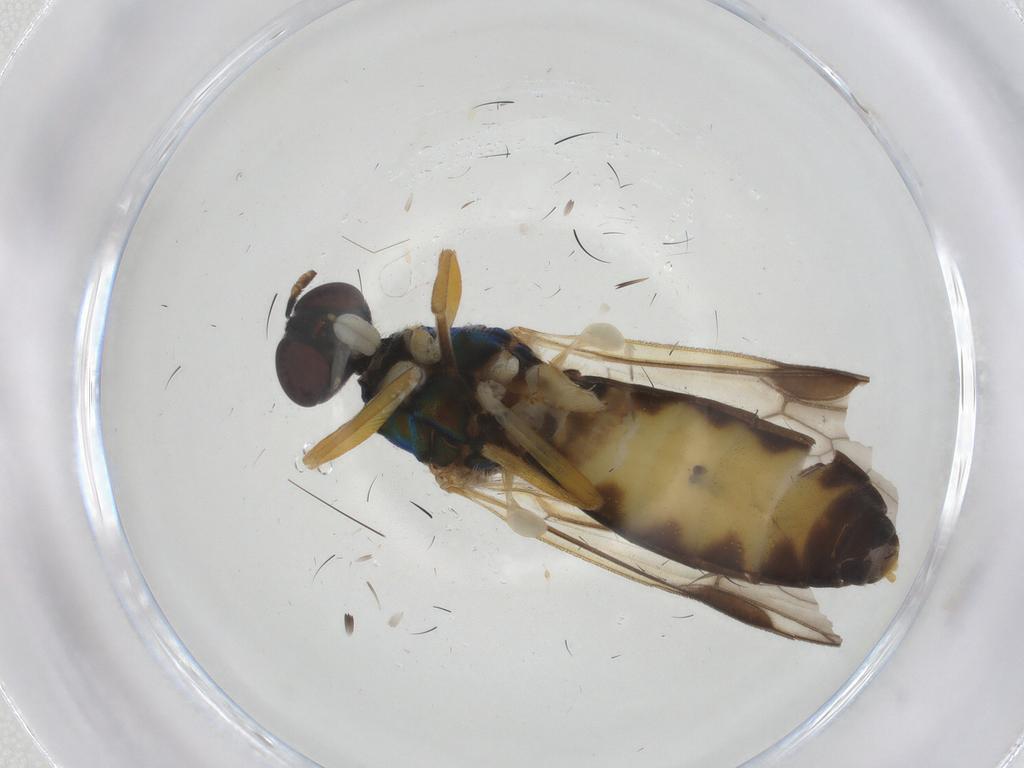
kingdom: Animalia
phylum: Arthropoda
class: Insecta
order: Diptera
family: Stratiomyidae
